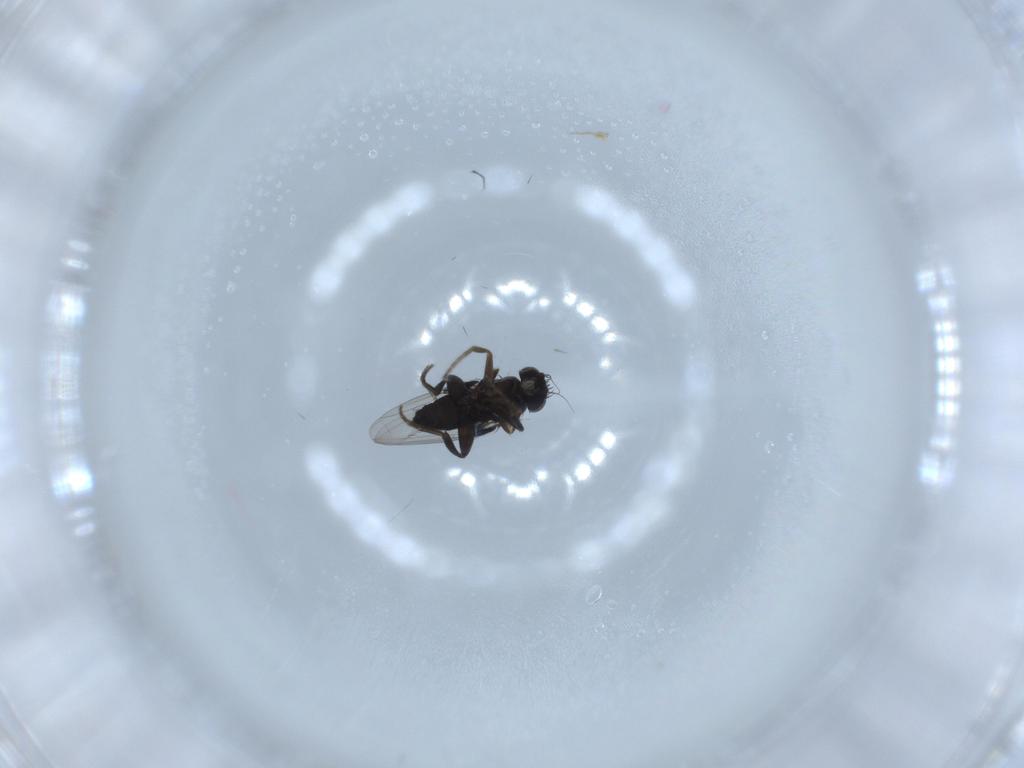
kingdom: Animalia
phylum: Arthropoda
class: Insecta
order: Diptera
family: Phoridae
